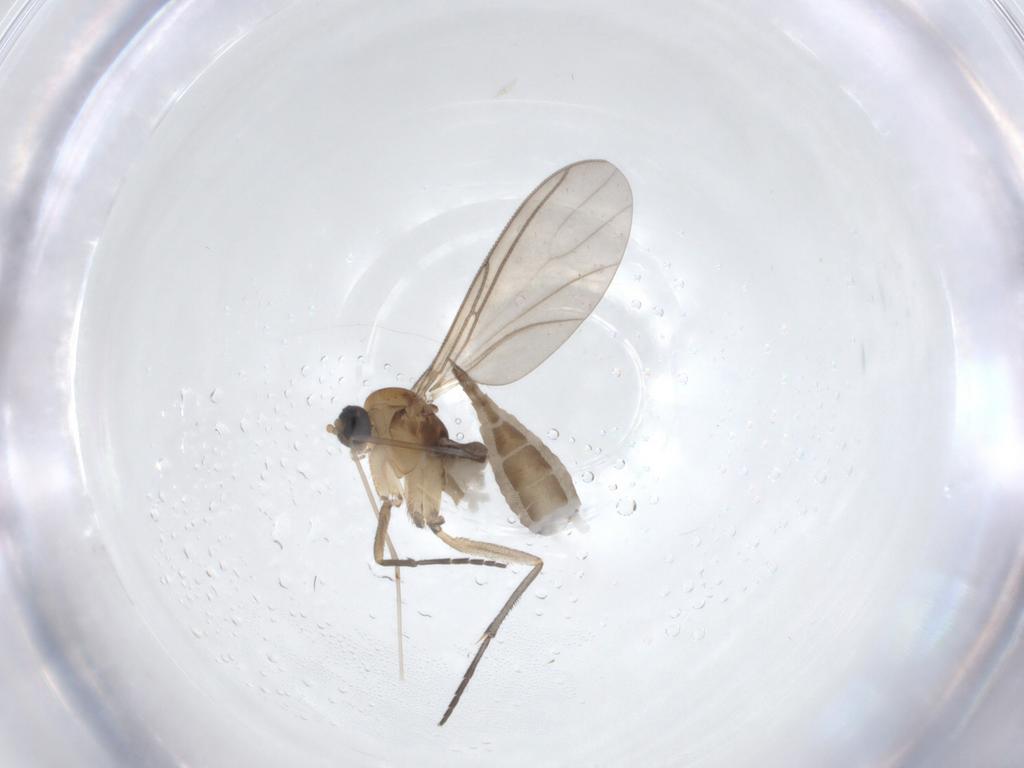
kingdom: Animalia
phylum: Arthropoda
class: Insecta
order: Diptera
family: Cecidomyiidae
